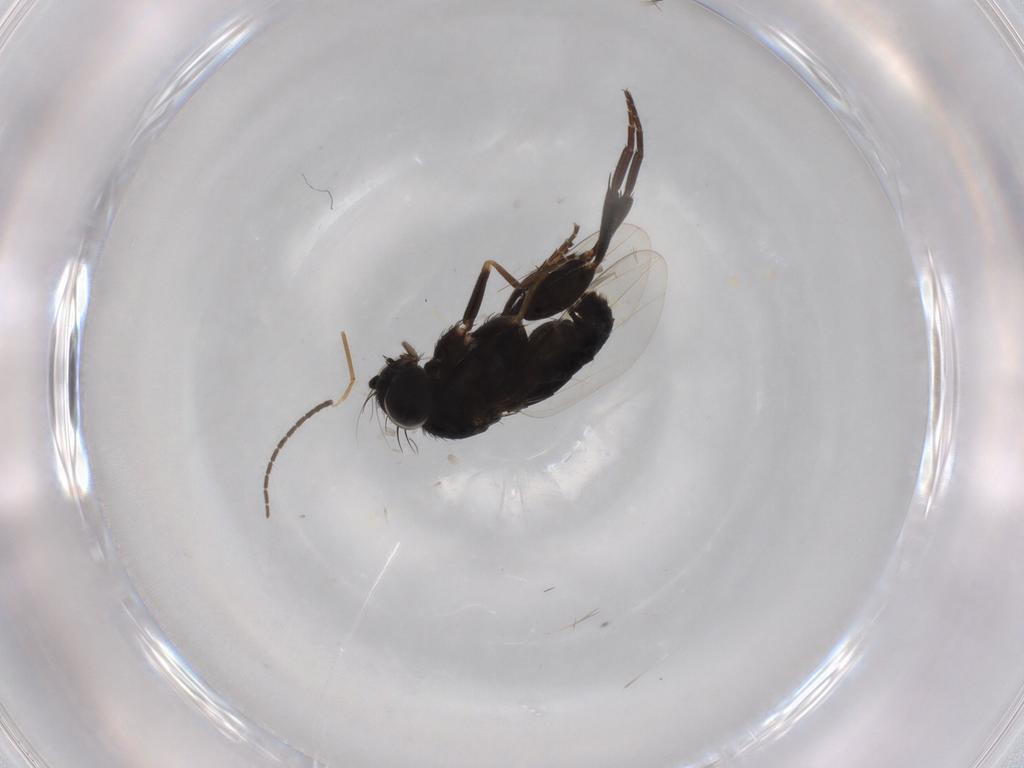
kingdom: Animalia
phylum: Arthropoda
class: Insecta
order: Diptera
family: Phoridae
